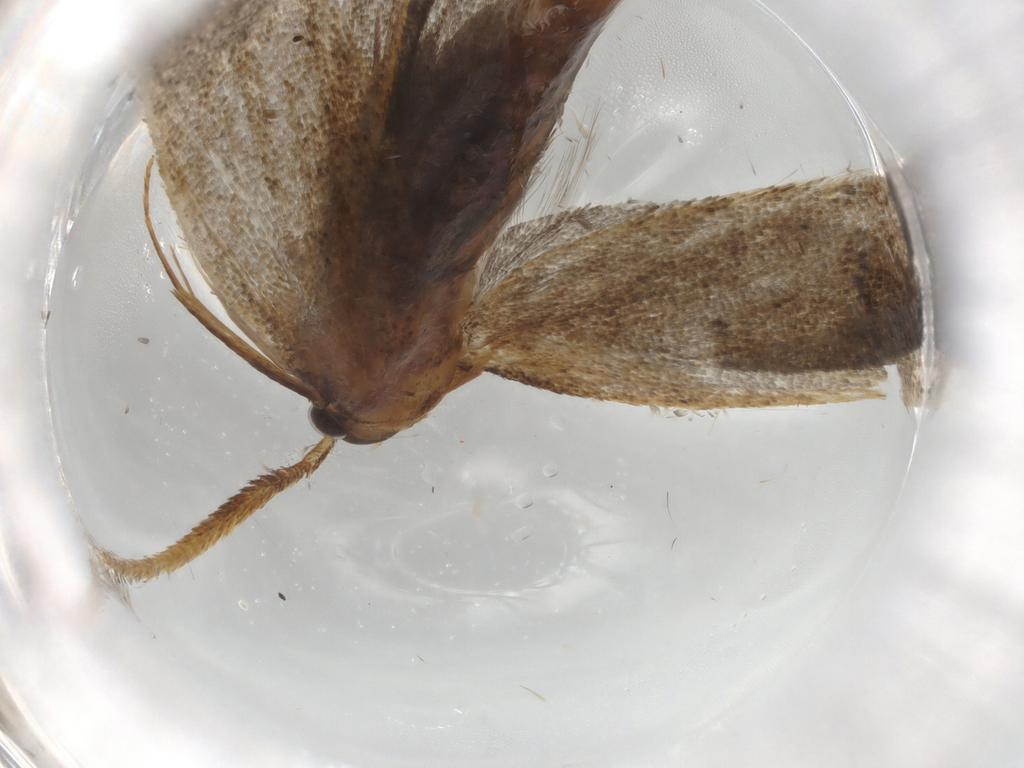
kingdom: Animalia
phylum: Arthropoda
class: Insecta
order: Lepidoptera
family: Lecithoceridae
